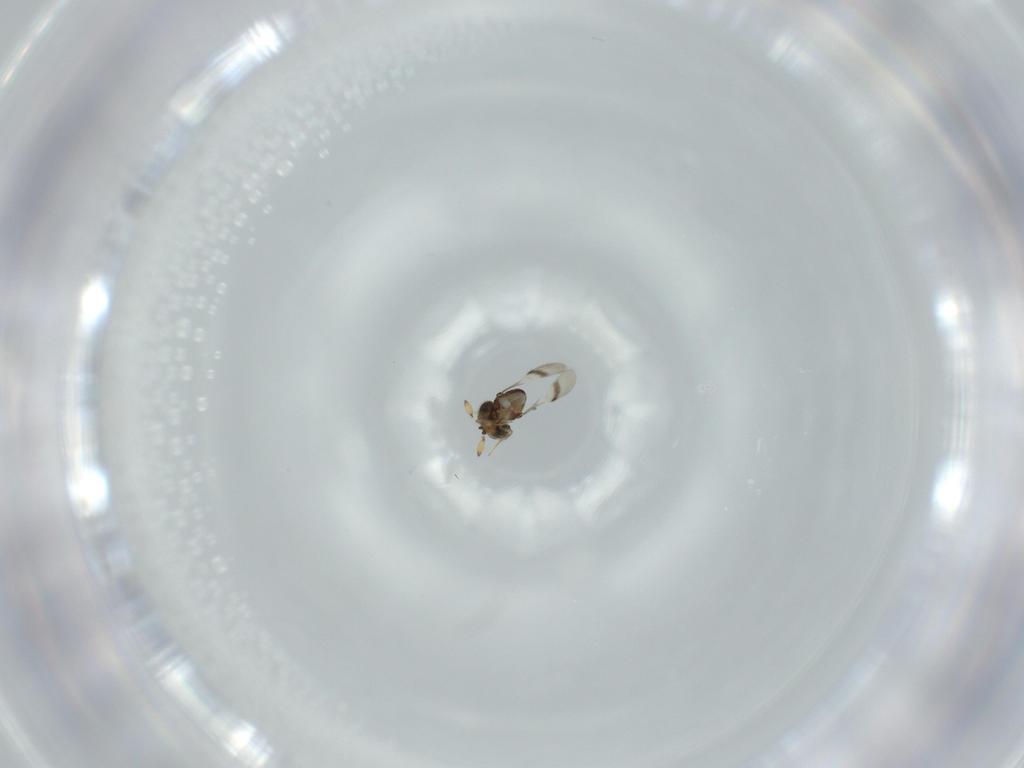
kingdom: Animalia
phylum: Arthropoda
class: Insecta
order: Hymenoptera
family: Scelionidae
